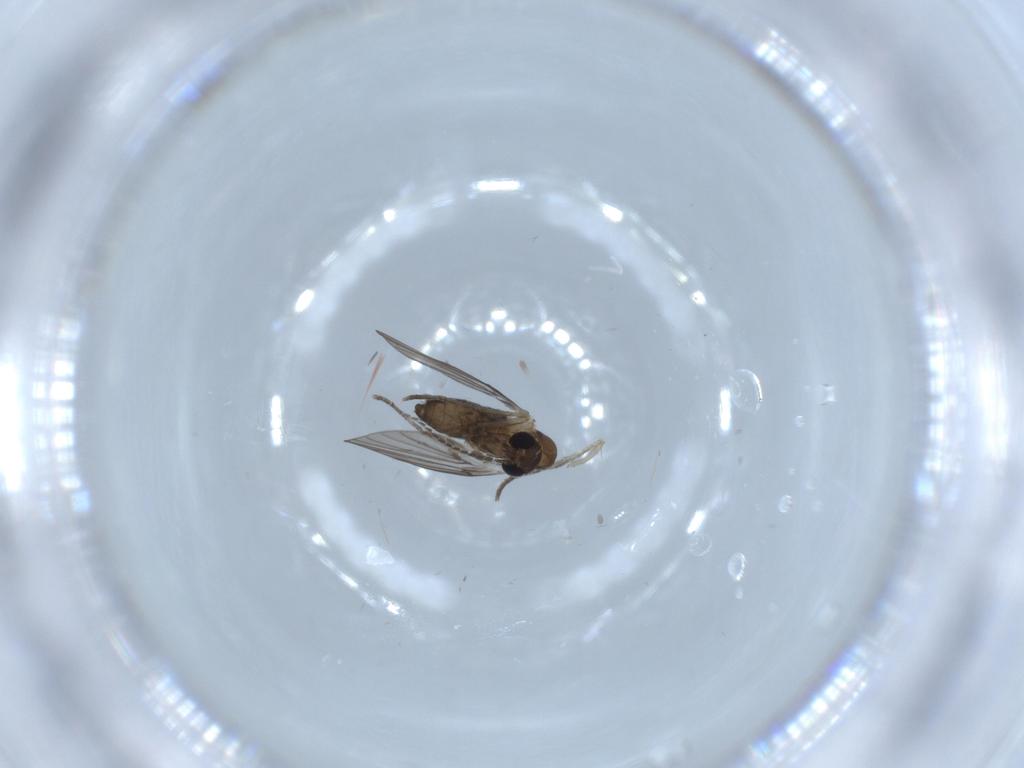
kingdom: Animalia
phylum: Arthropoda
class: Insecta
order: Diptera
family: Psychodidae
